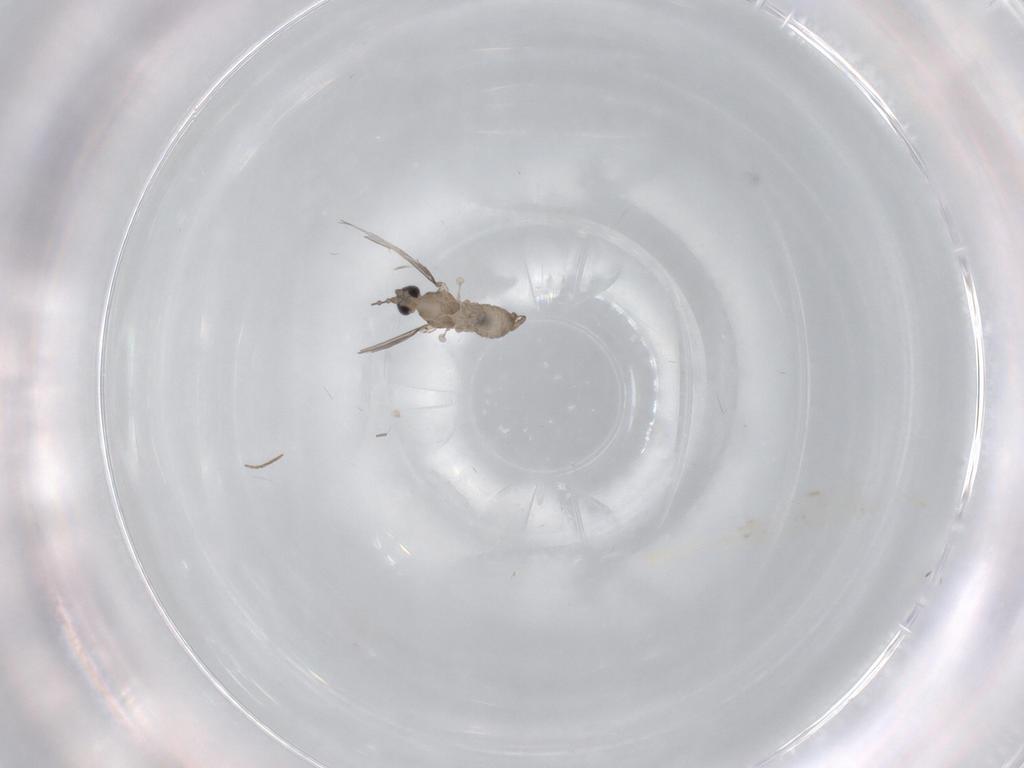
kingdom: Animalia
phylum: Arthropoda
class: Insecta
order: Diptera
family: Cecidomyiidae
